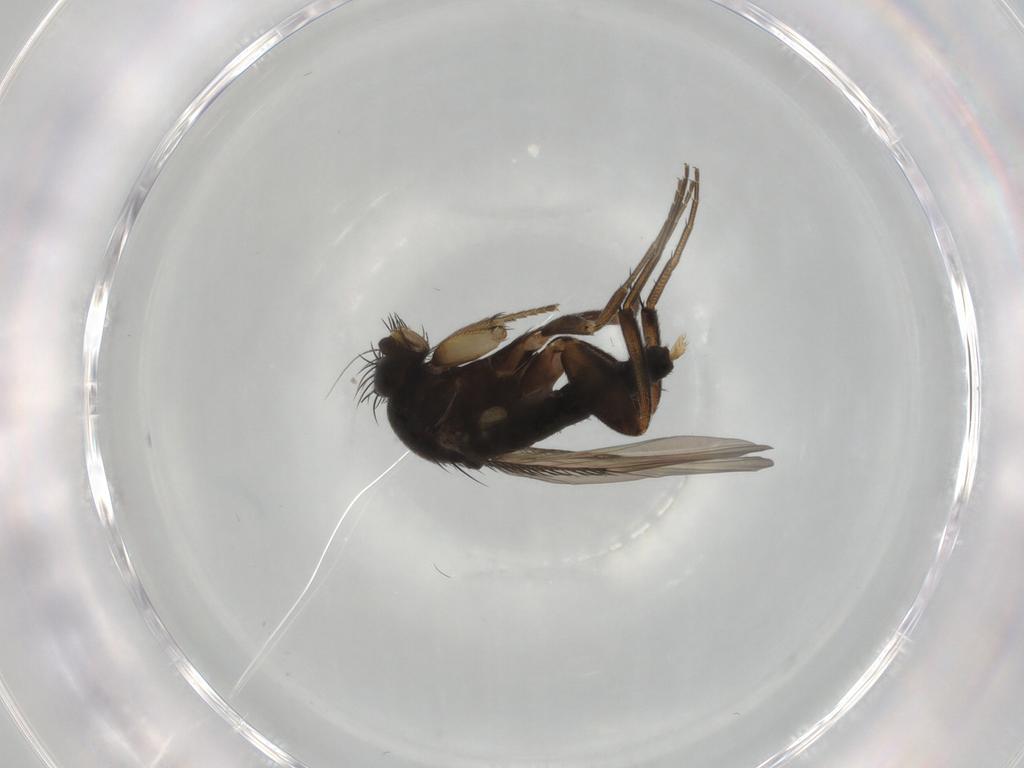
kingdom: Animalia
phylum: Arthropoda
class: Insecta
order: Diptera
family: Phoridae
